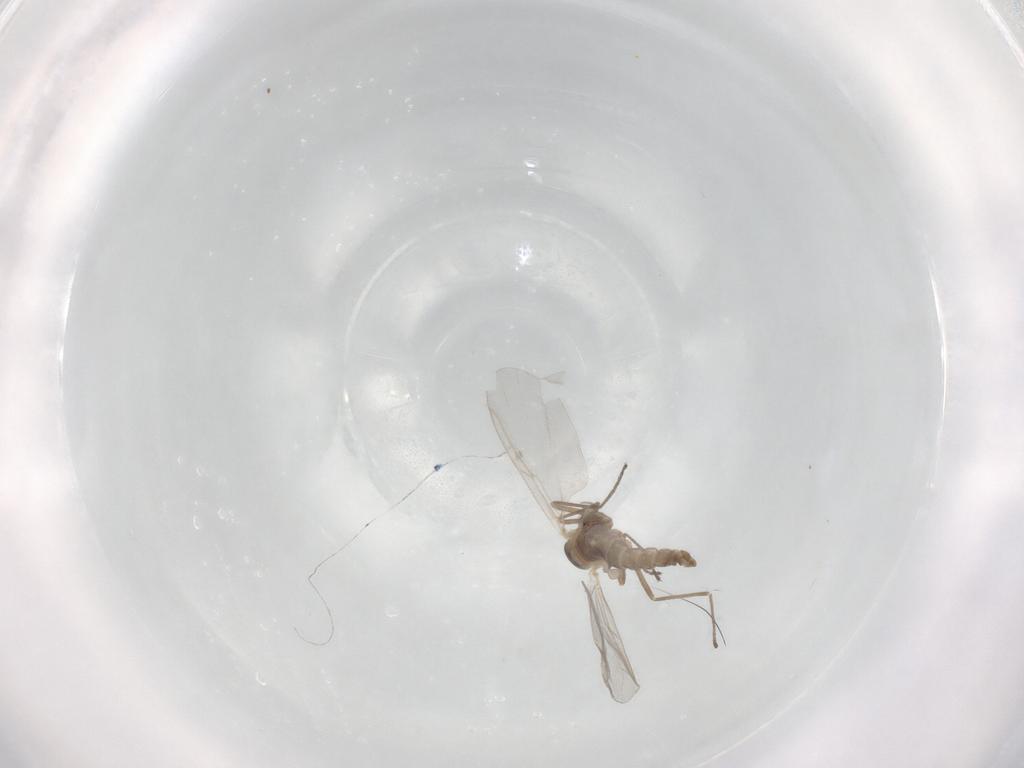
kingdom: Animalia
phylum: Arthropoda
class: Insecta
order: Diptera
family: Cecidomyiidae
